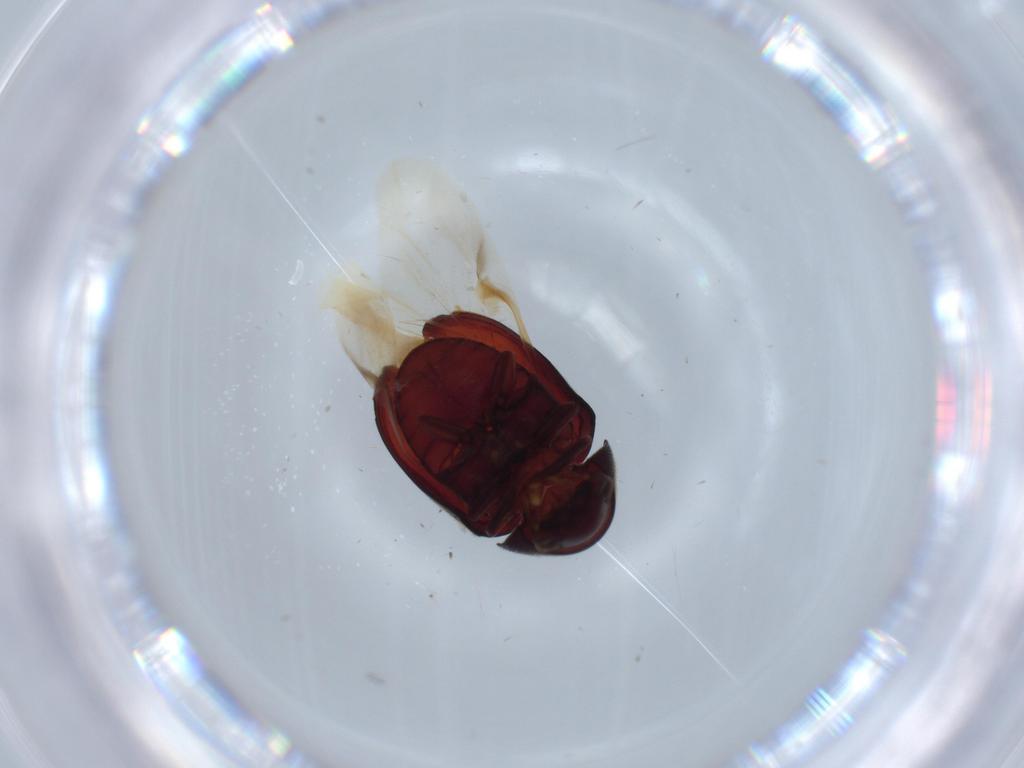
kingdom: Animalia
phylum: Arthropoda
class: Insecta
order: Coleoptera
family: Ptinidae
